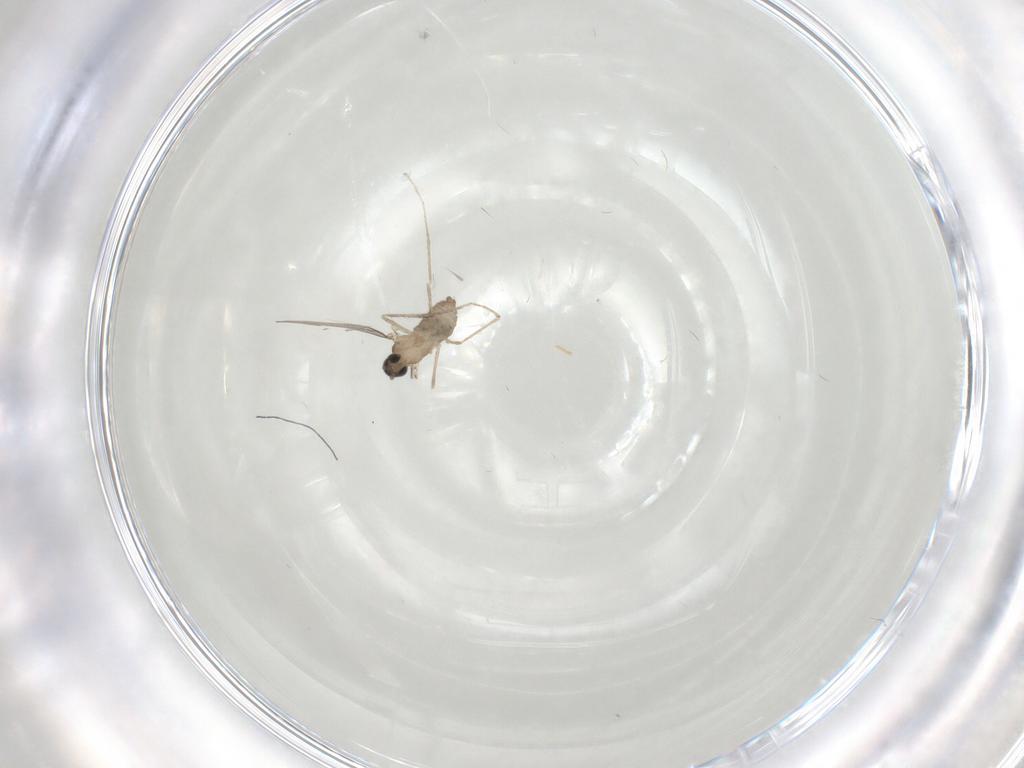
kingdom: Animalia
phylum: Arthropoda
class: Insecta
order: Diptera
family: Cecidomyiidae
